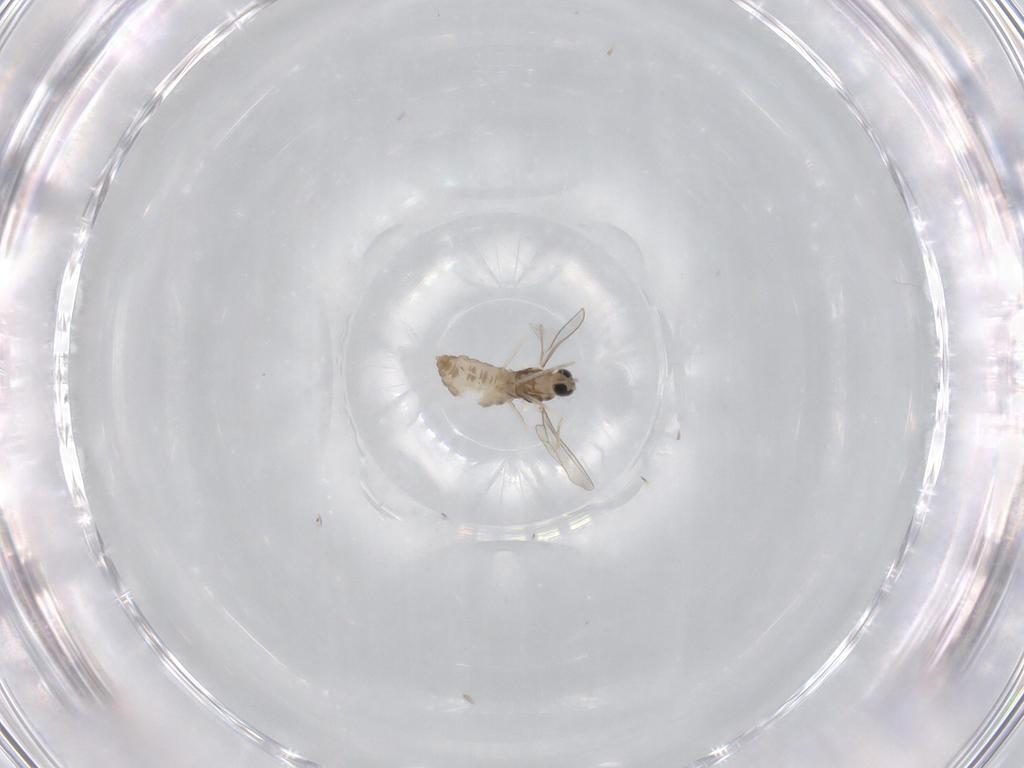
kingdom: Animalia
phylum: Arthropoda
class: Insecta
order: Diptera
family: Cecidomyiidae
